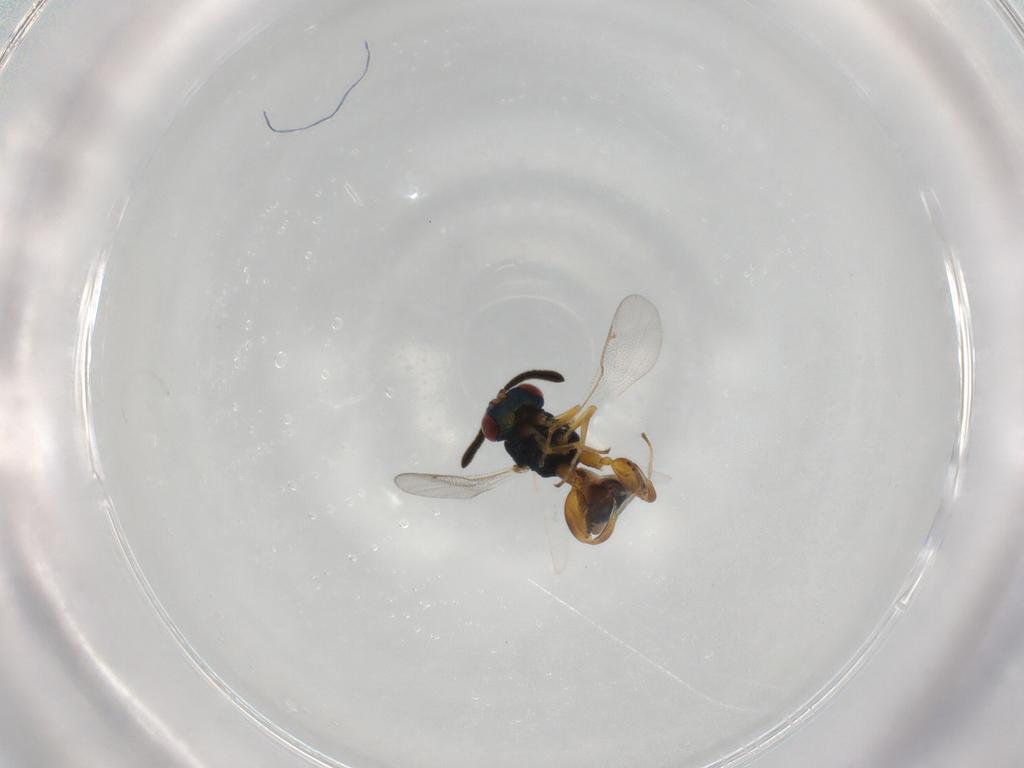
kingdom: Animalia
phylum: Arthropoda
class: Insecta
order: Hymenoptera
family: Torymidae
